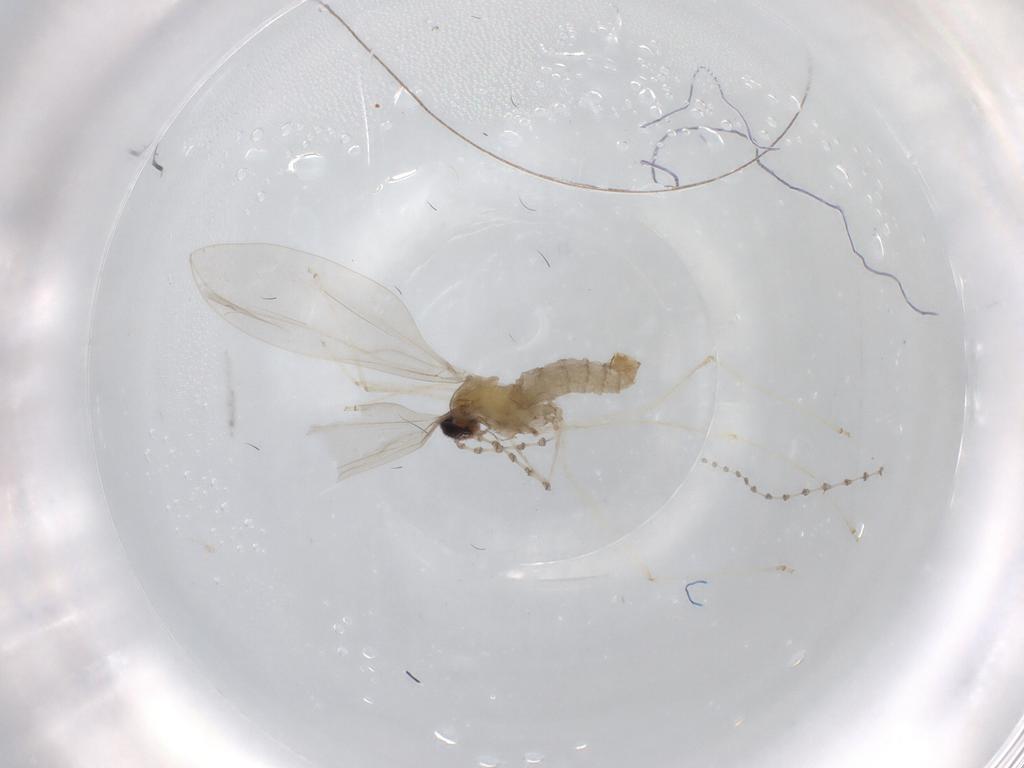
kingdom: Animalia
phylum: Arthropoda
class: Insecta
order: Diptera
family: Cecidomyiidae
